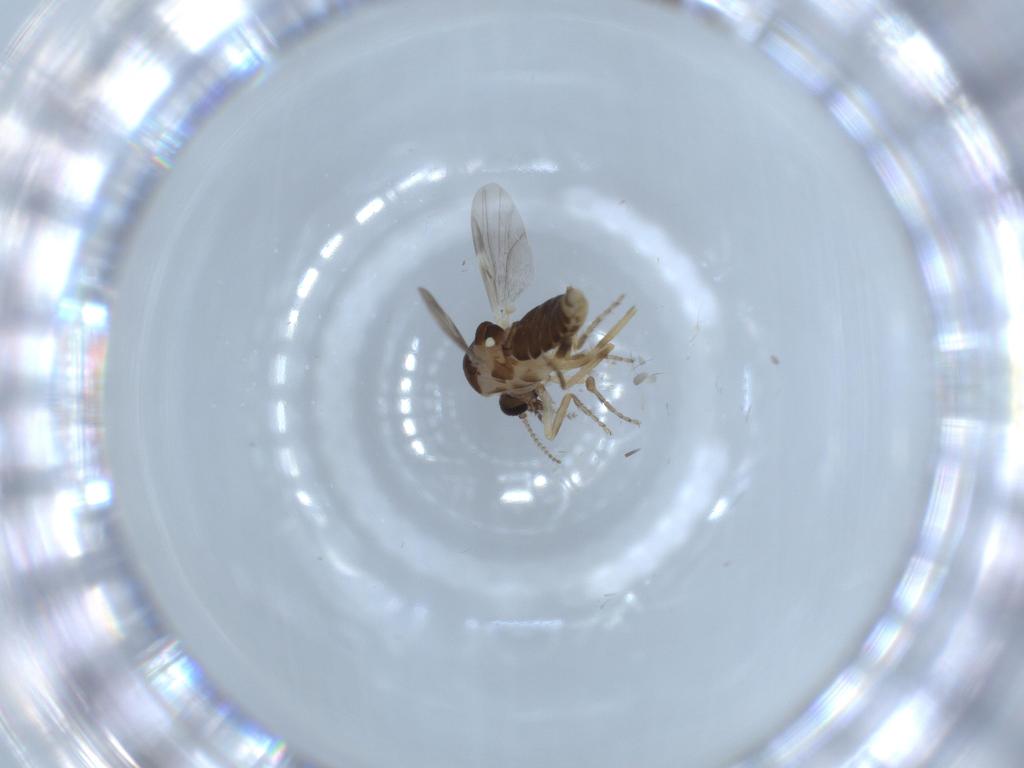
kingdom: Animalia
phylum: Arthropoda
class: Insecta
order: Diptera
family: Ceratopogonidae
